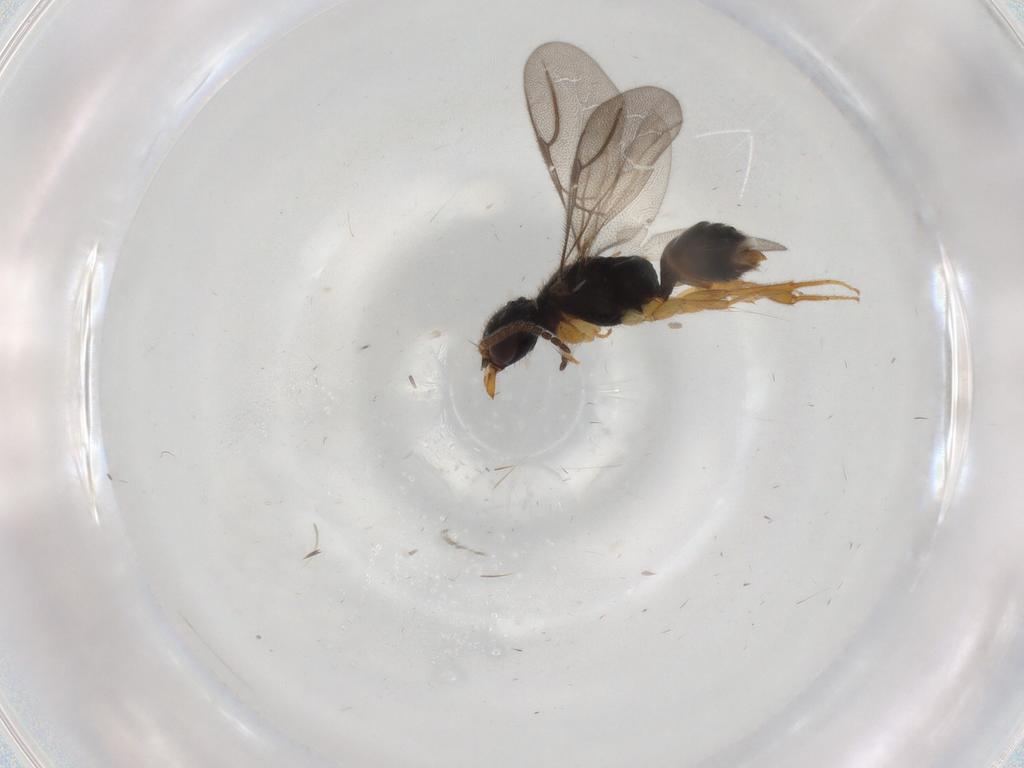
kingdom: Animalia
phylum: Arthropoda
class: Insecta
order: Hymenoptera
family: Bethylidae
